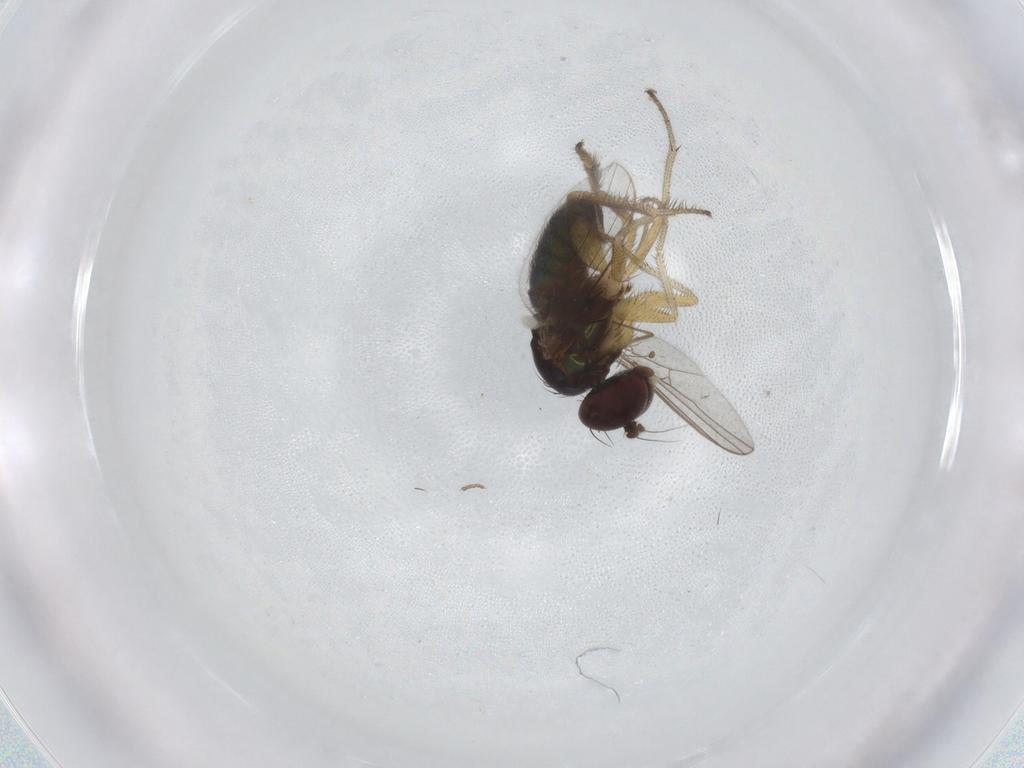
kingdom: Animalia
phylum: Arthropoda
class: Insecta
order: Diptera
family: Dolichopodidae
